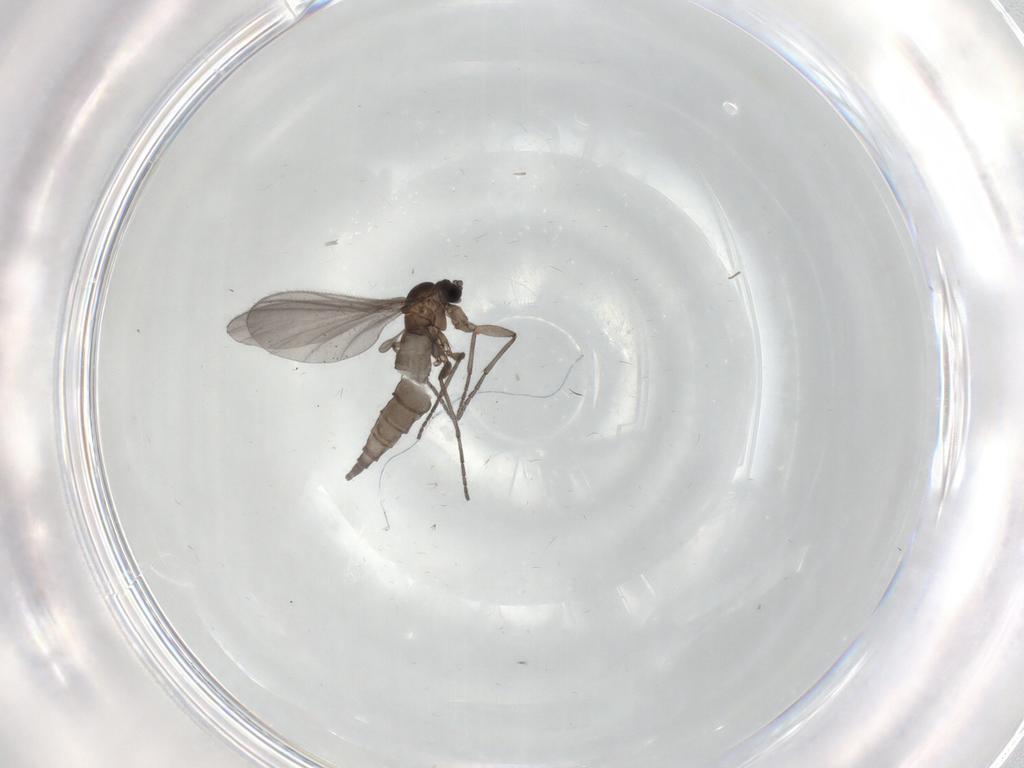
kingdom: Animalia
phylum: Arthropoda
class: Insecta
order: Diptera
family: Sciaridae
